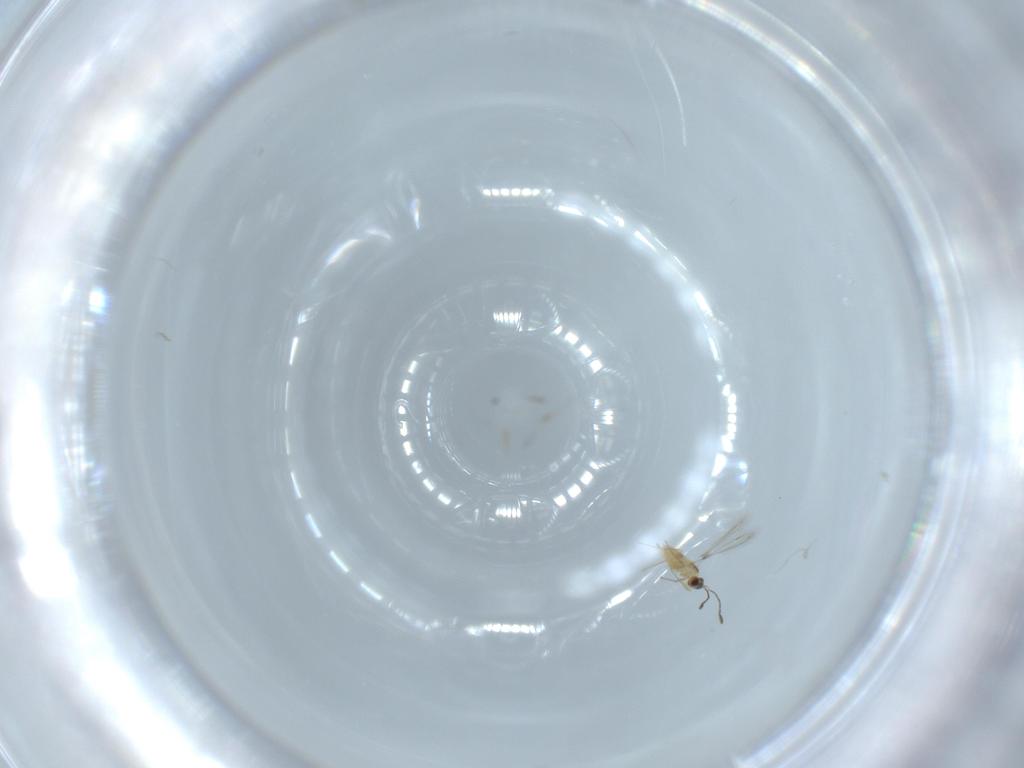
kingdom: Animalia
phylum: Arthropoda
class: Insecta
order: Hymenoptera
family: Mymaridae
